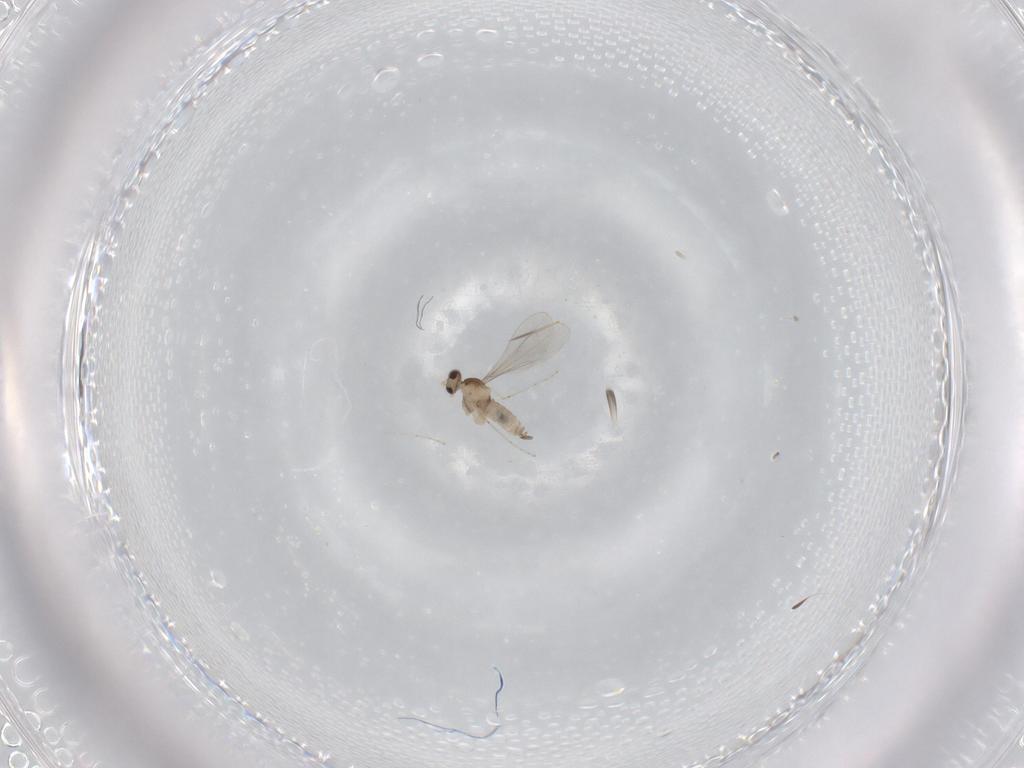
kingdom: Animalia
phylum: Arthropoda
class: Insecta
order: Diptera
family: Cecidomyiidae
